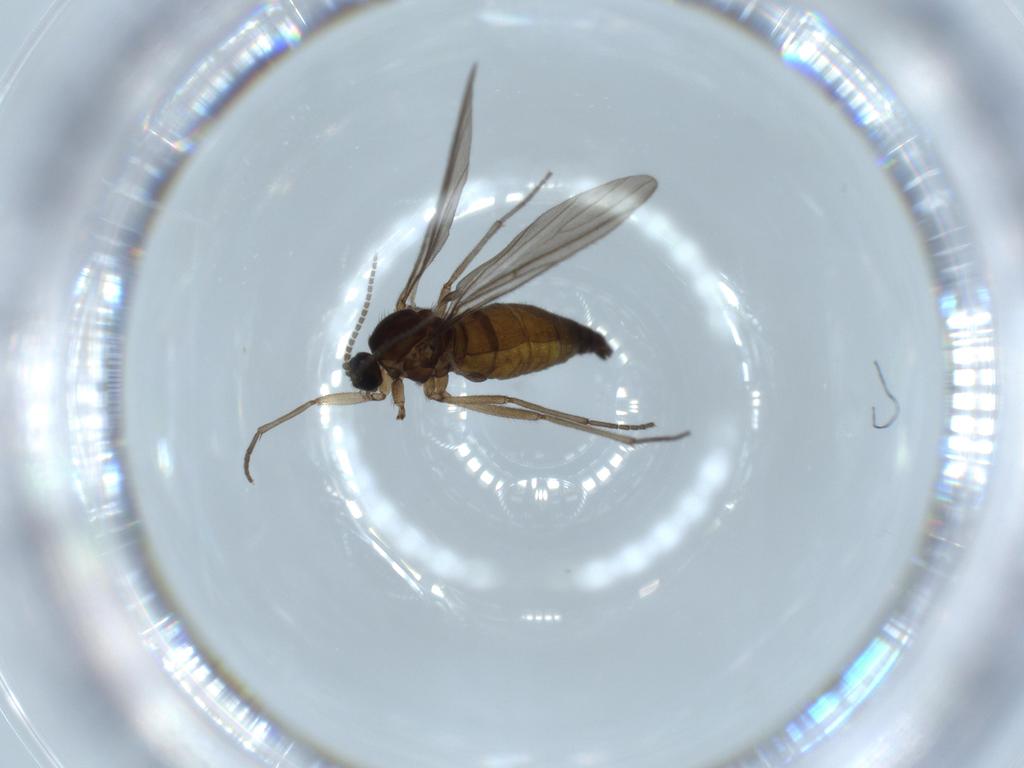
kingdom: Animalia
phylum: Arthropoda
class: Insecta
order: Diptera
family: Sciaridae
